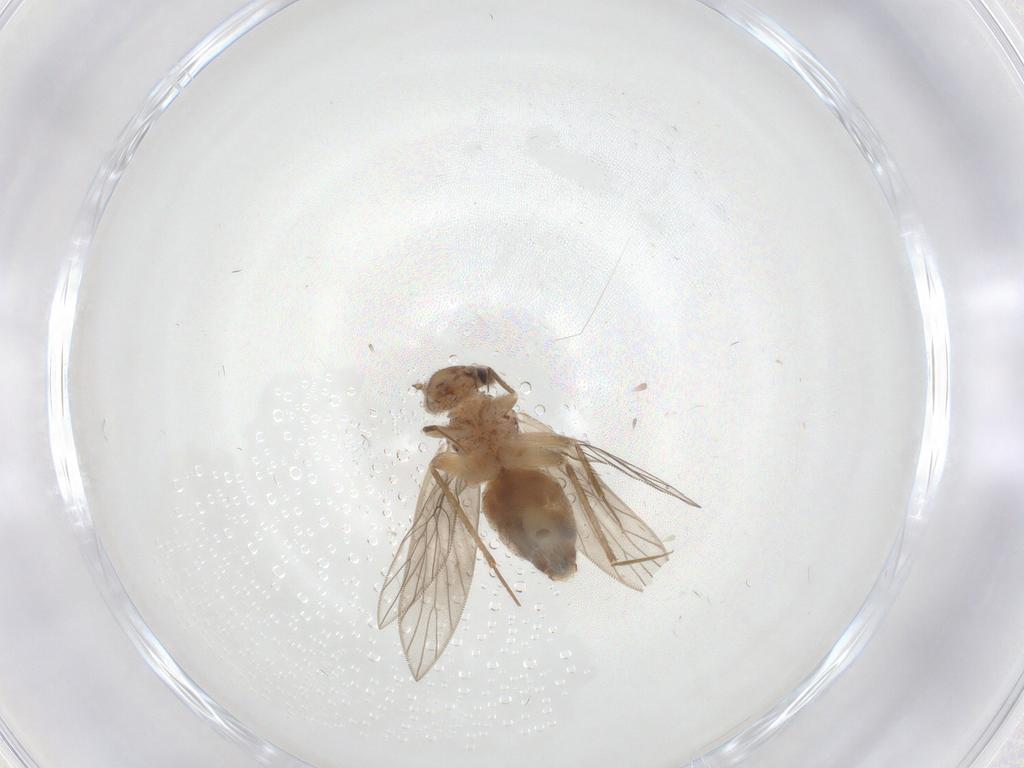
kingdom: Animalia
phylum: Arthropoda
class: Insecta
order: Psocodea
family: Lepidopsocidae
